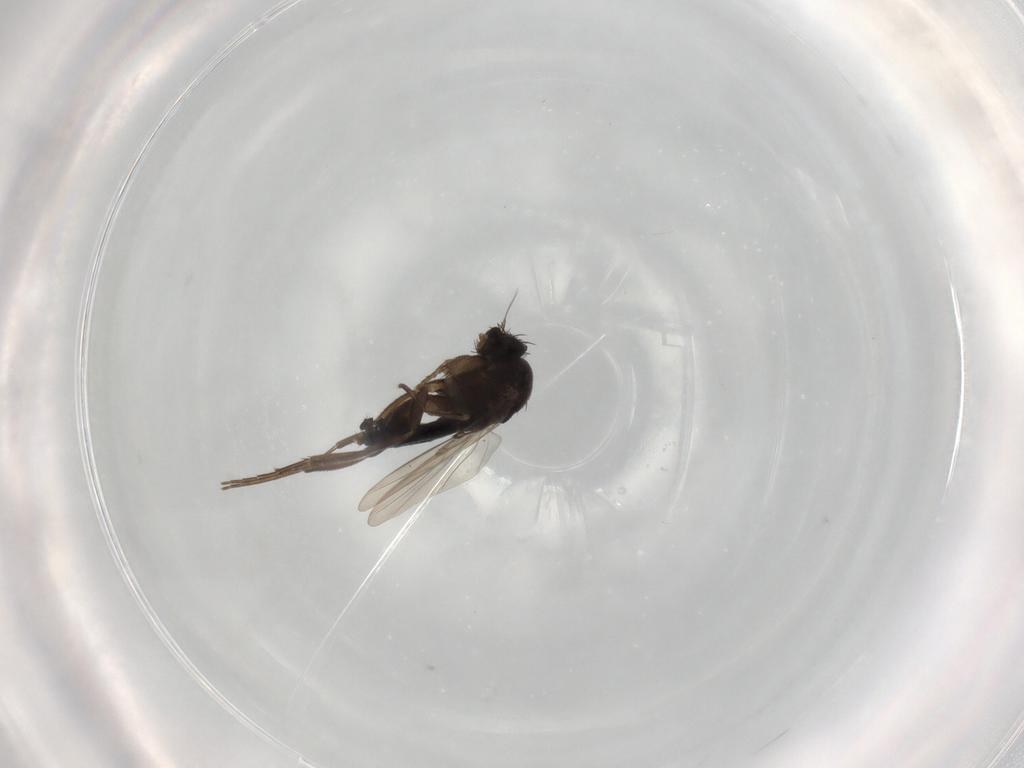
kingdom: Animalia
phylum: Arthropoda
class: Insecta
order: Diptera
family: Phoridae
